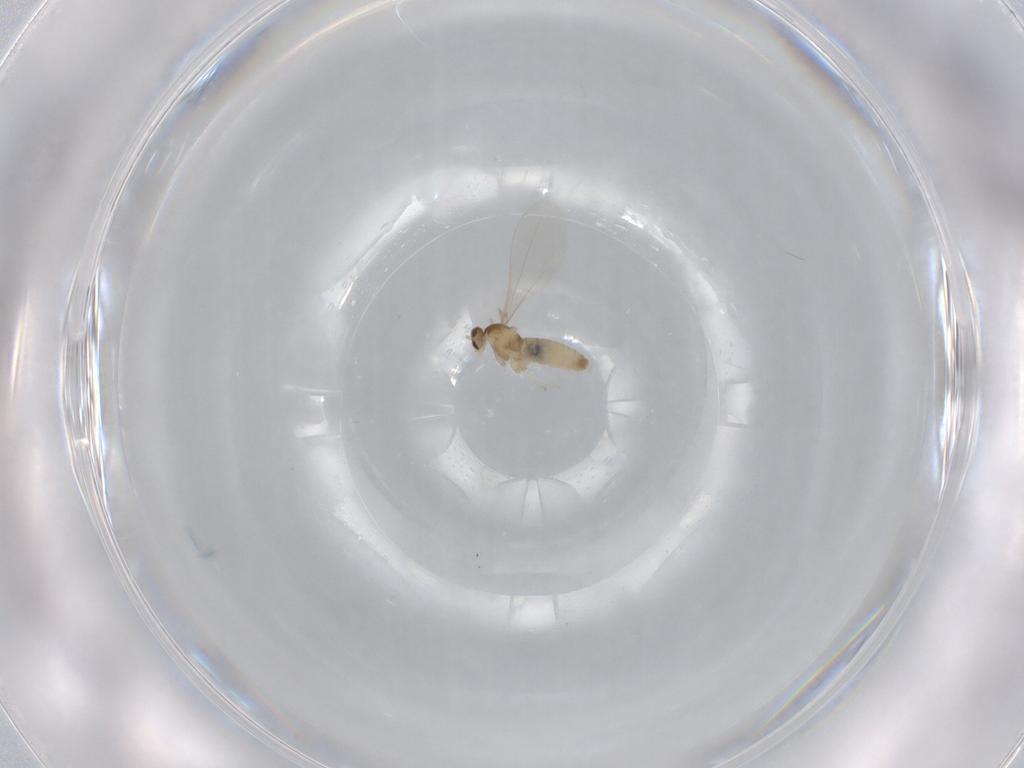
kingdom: Animalia
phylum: Arthropoda
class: Insecta
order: Diptera
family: Cecidomyiidae
